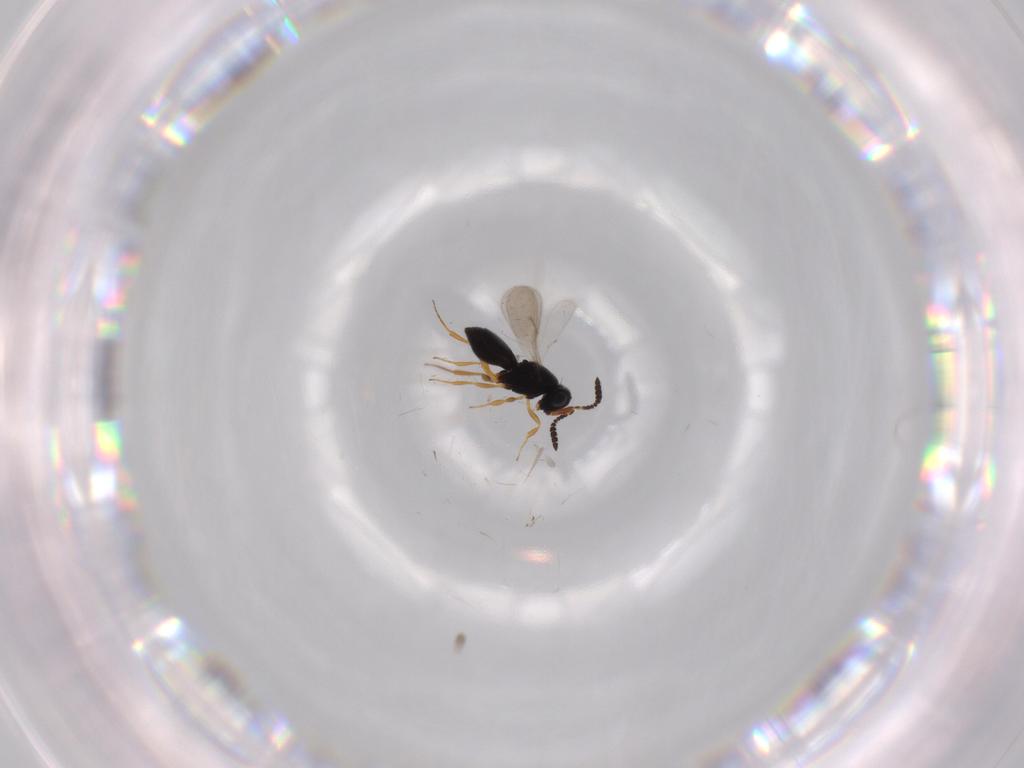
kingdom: Animalia
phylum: Arthropoda
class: Insecta
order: Hymenoptera
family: Scelionidae
